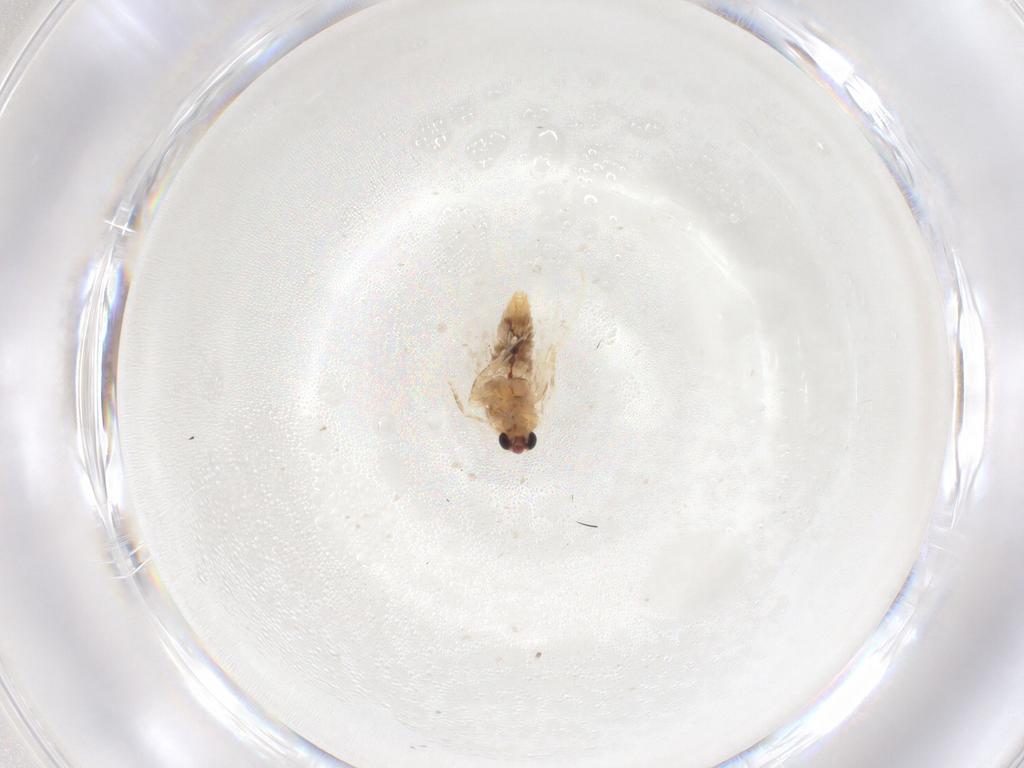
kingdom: Animalia
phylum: Arthropoda
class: Insecta
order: Lepidoptera
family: Nepticulidae
